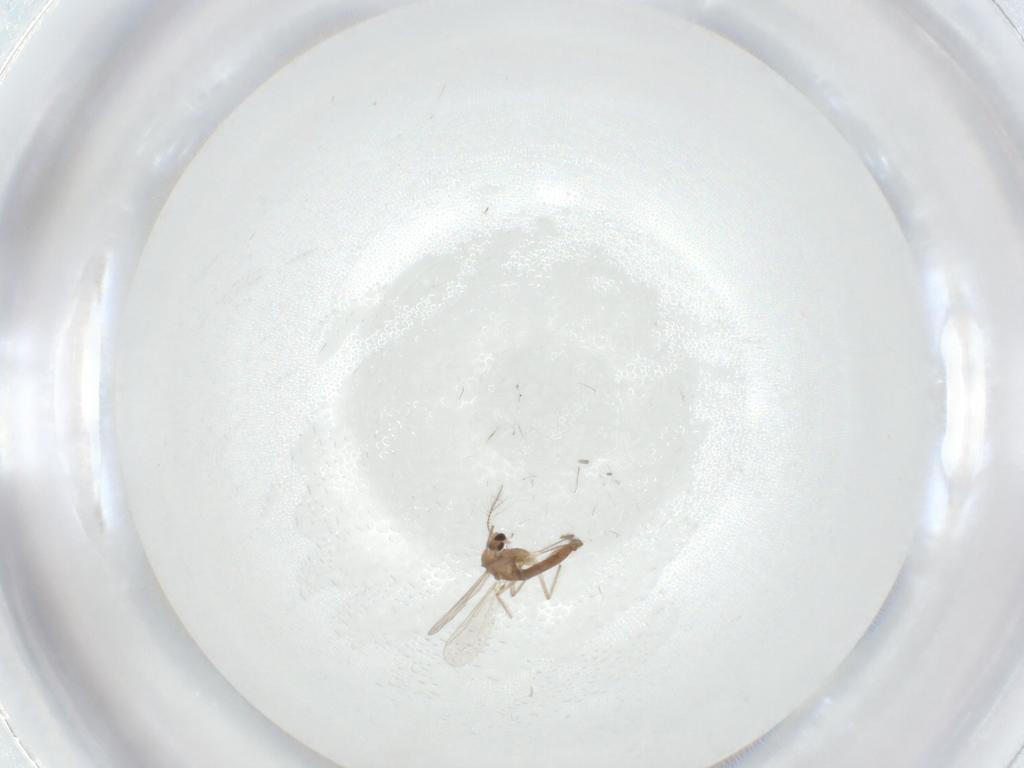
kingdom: Animalia
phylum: Arthropoda
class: Insecta
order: Diptera
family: Chironomidae
